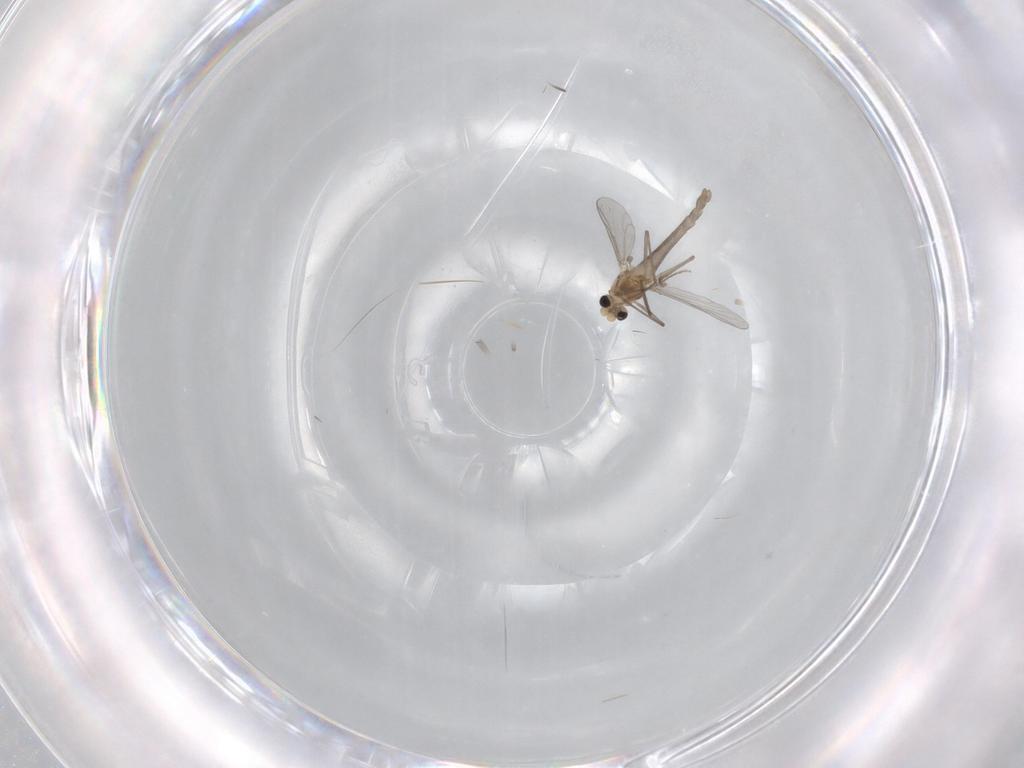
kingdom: Animalia
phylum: Arthropoda
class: Insecta
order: Diptera
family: Chironomidae
